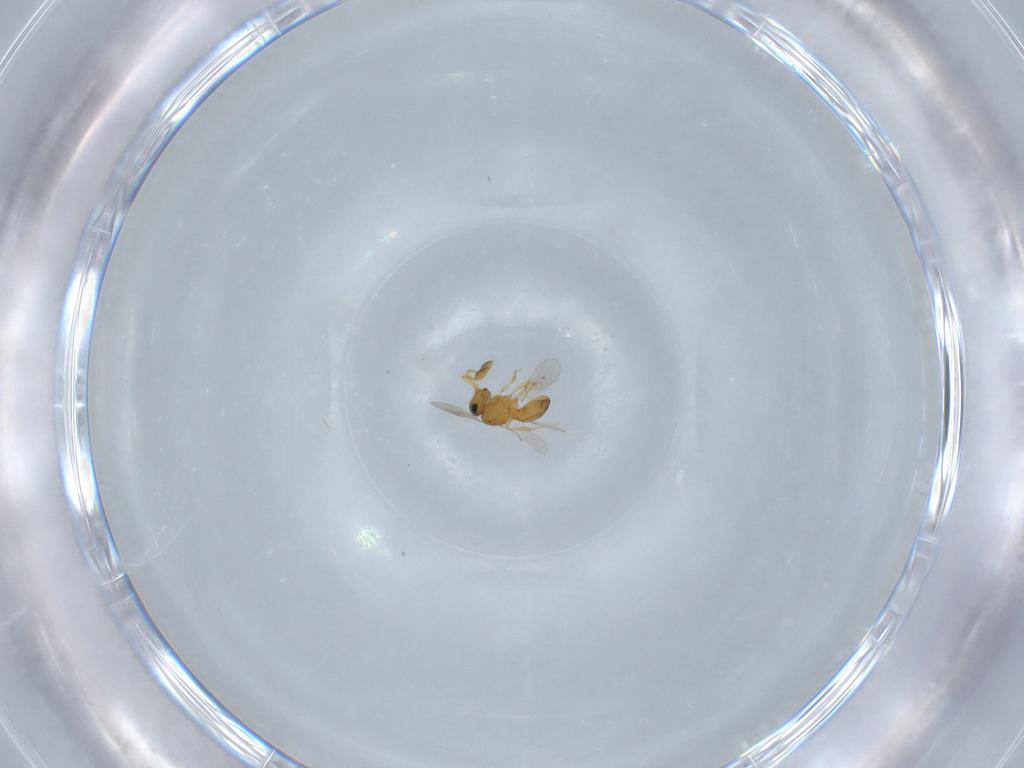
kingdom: Animalia
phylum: Arthropoda
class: Insecta
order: Hymenoptera
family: Scelionidae
